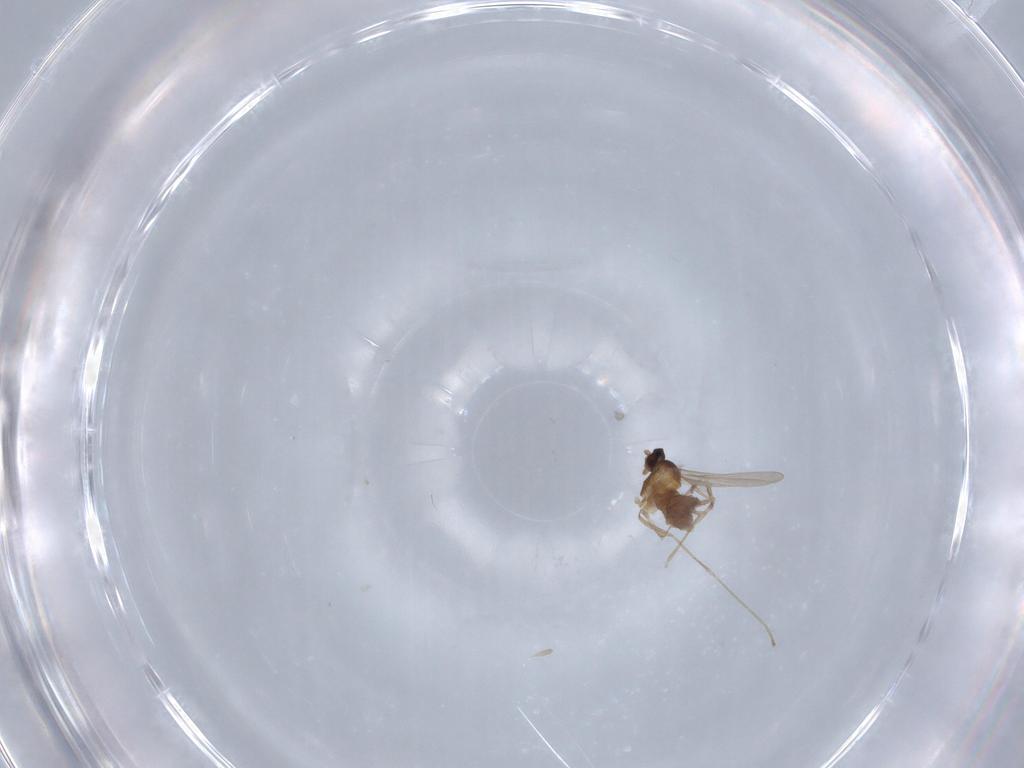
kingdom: Animalia
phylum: Arthropoda
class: Insecta
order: Diptera
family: Cecidomyiidae
